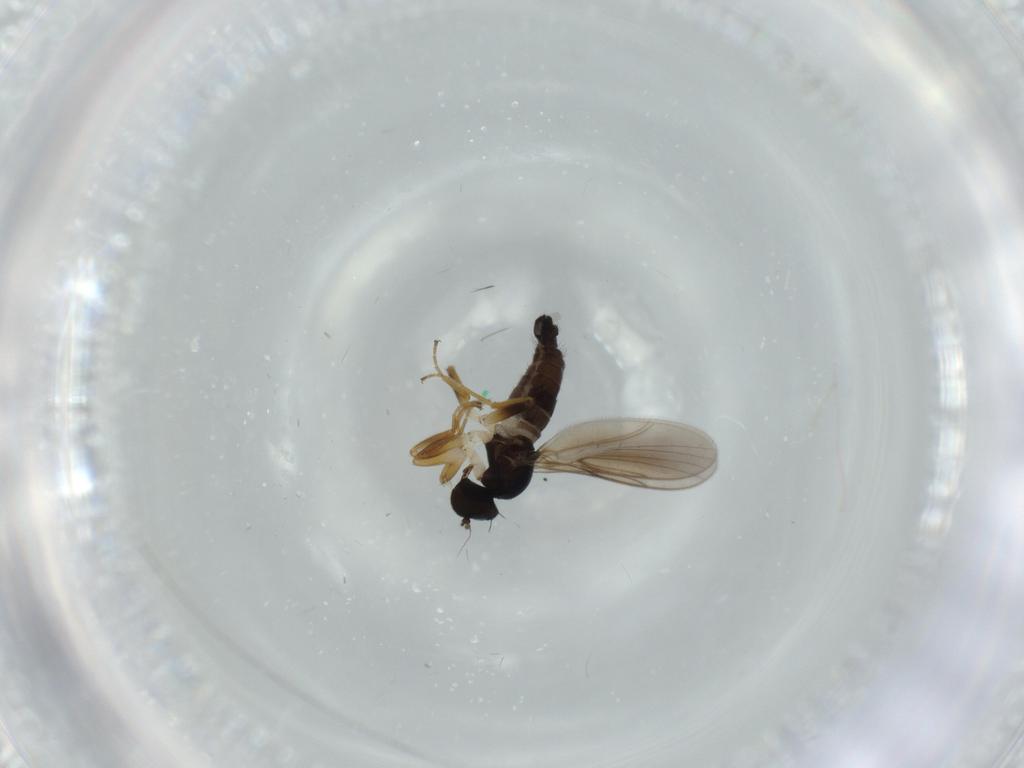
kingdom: Animalia
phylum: Arthropoda
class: Insecta
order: Diptera
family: Hybotidae
